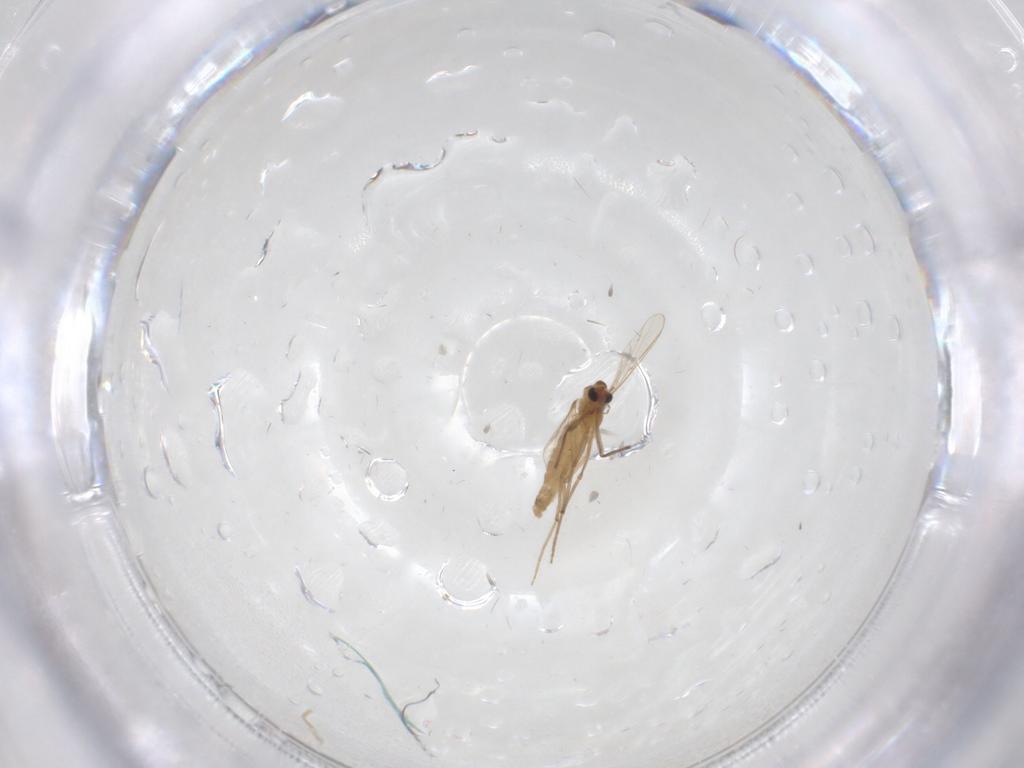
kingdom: Animalia
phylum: Arthropoda
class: Insecta
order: Diptera
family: Chironomidae
